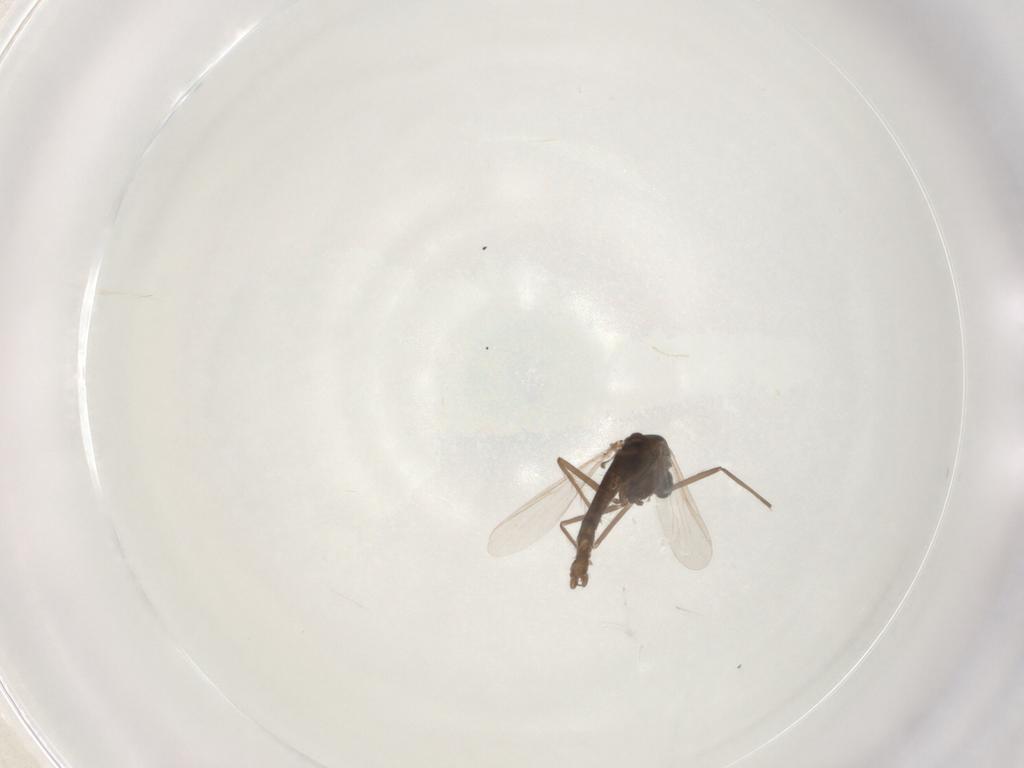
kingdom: Animalia
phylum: Arthropoda
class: Insecta
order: Diptera
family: Chironomidae
